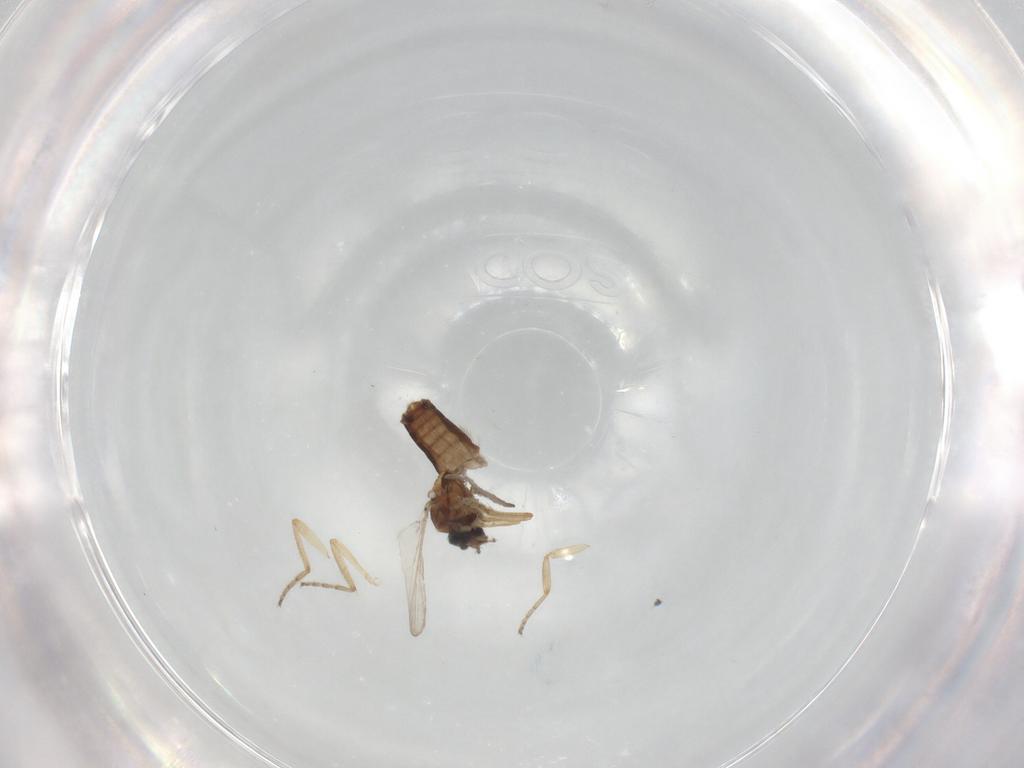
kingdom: Animalia
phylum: Arthropoda
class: Insecta
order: Diptera
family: Ceratopogonidae
